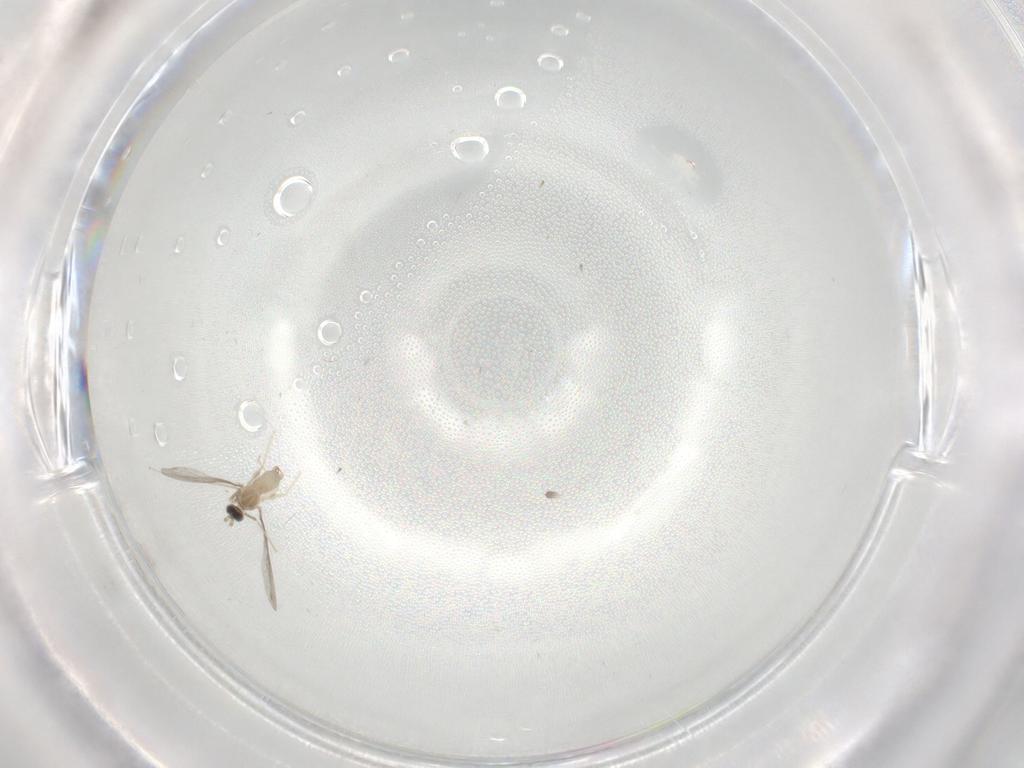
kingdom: Animalia
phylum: Arthropoda
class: Insecta
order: Diptera
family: Cecidomyiidae
